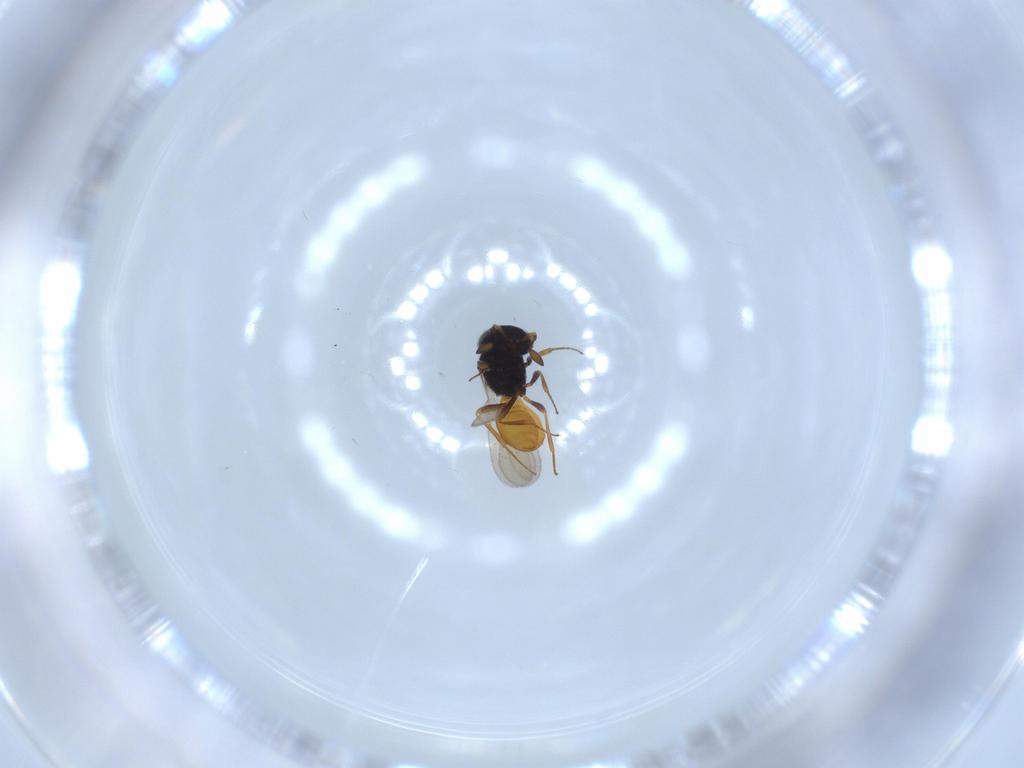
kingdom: Animalia
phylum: Arthropoda
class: Insecta
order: Hymenoptera
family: Scelionidae
